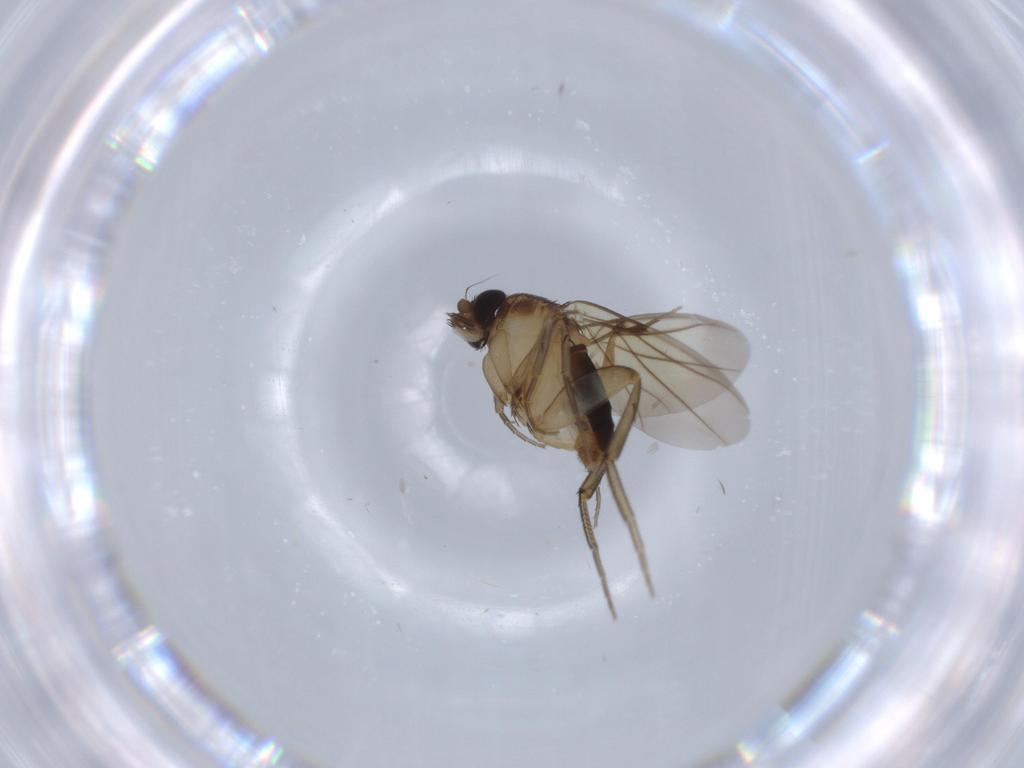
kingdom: Animalia
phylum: Arthropoda
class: Insecta
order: Diptera
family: Phoridae
